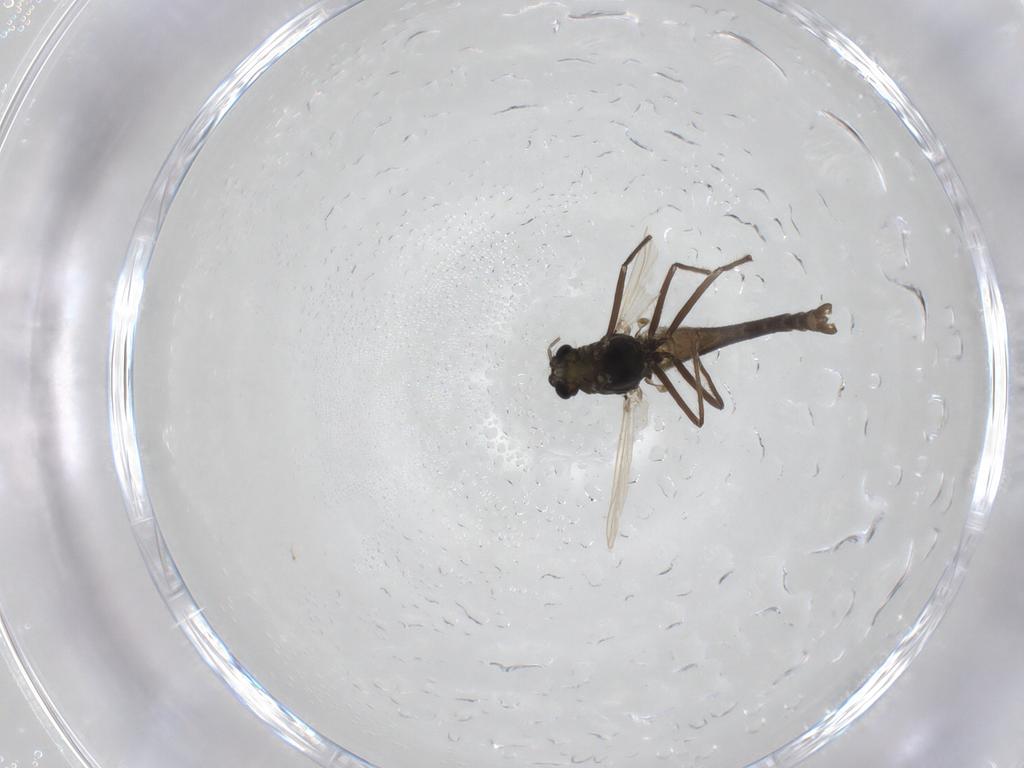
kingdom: Animalia
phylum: Arthropoda
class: Insecta
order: Diptera
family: Chironomidae
